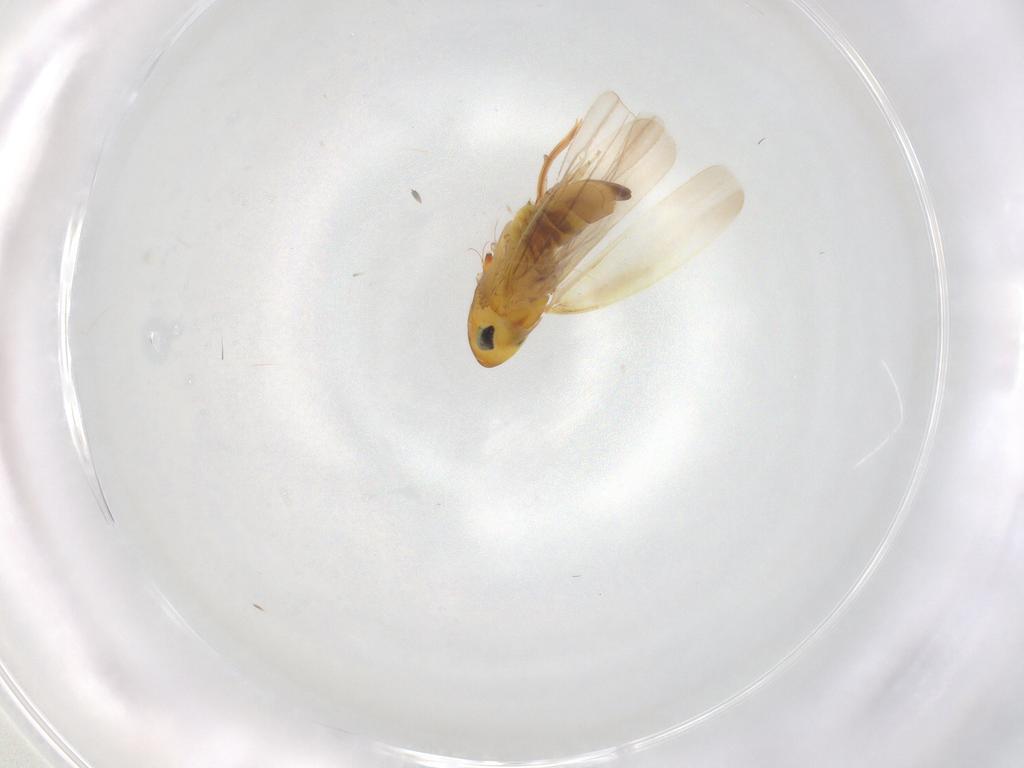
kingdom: Animalia
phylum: Arthropoda
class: Insecta
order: Hemiptera
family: Cicadellidae
